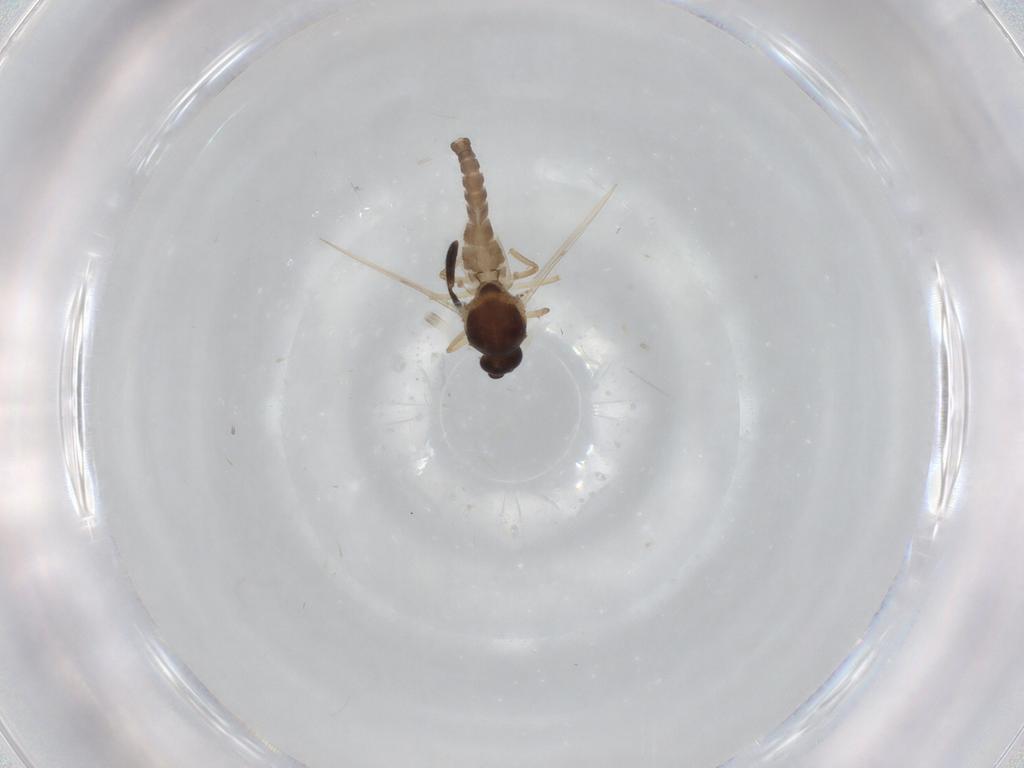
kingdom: Animalia
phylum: Arthropoda
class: Insecta
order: Diptera
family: Ceratopogonidae
